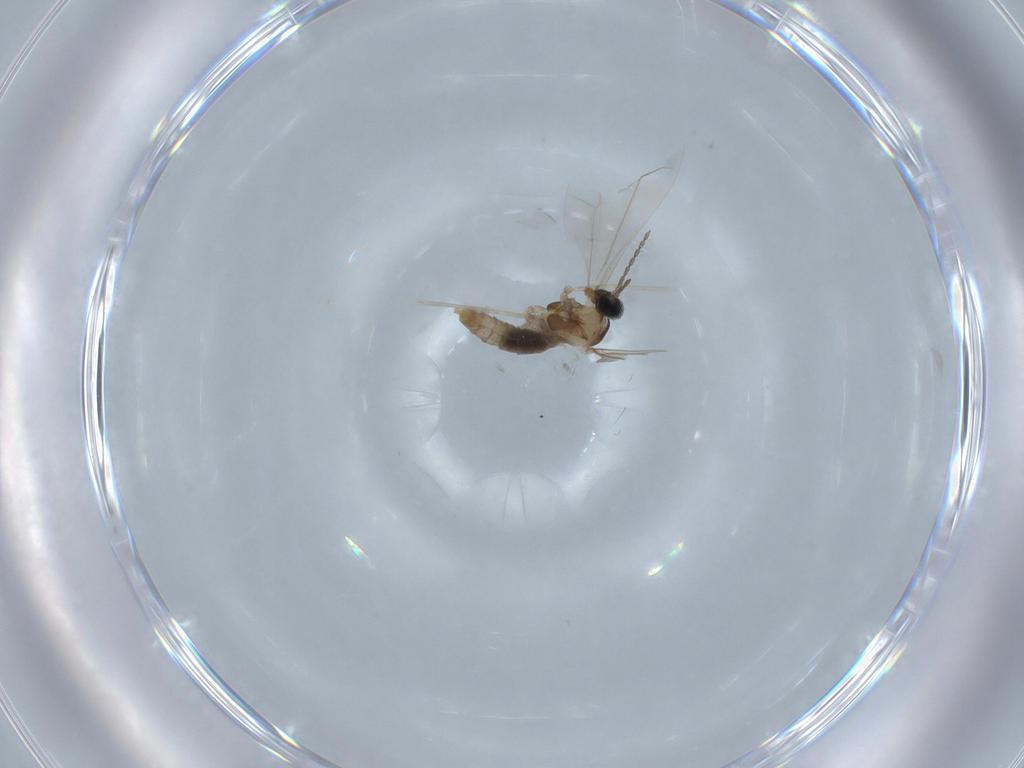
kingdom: Animalia
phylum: Arthropoda
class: Insecta
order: Diptera
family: Cecidomyiidae
